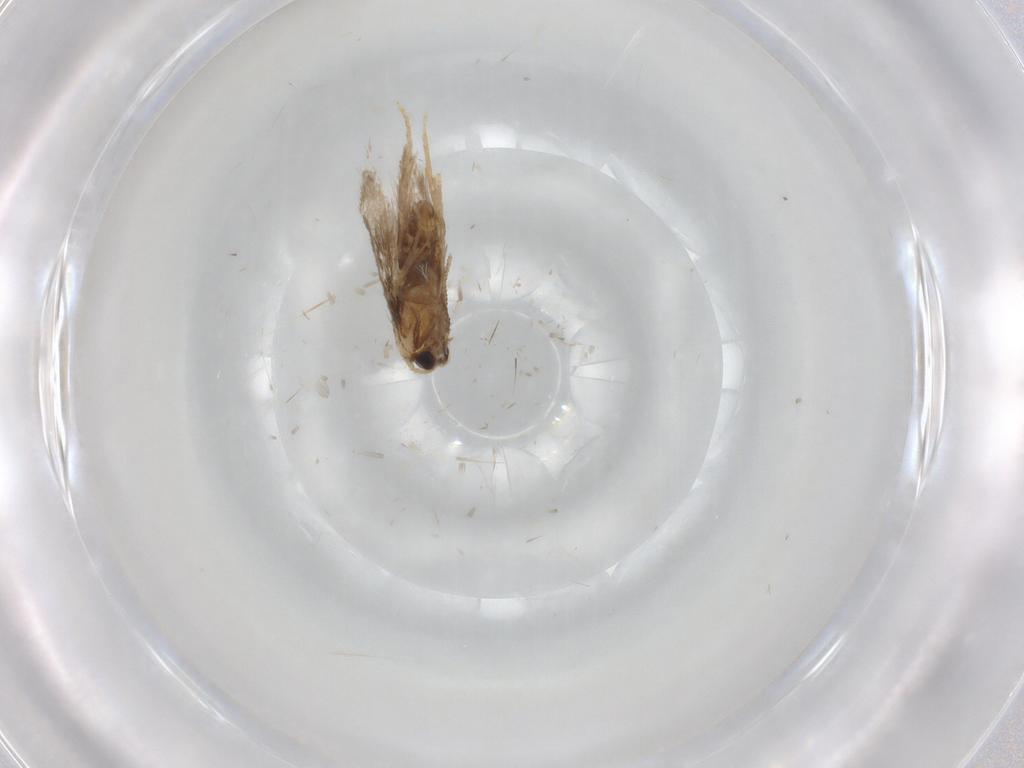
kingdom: Animalia
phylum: Arthropoda
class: Insecta
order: Lepidoptera
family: Nepticulidae
